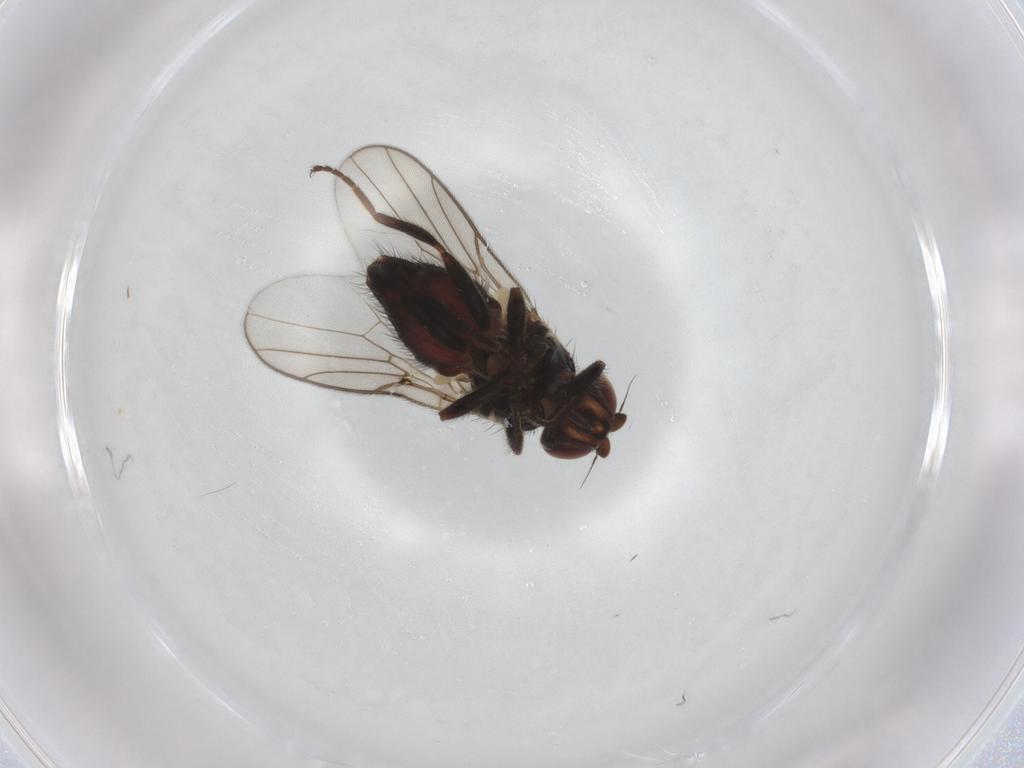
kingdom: Animalia
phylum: Arthropoda
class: Insecta
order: Diptera
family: Chloropidae
